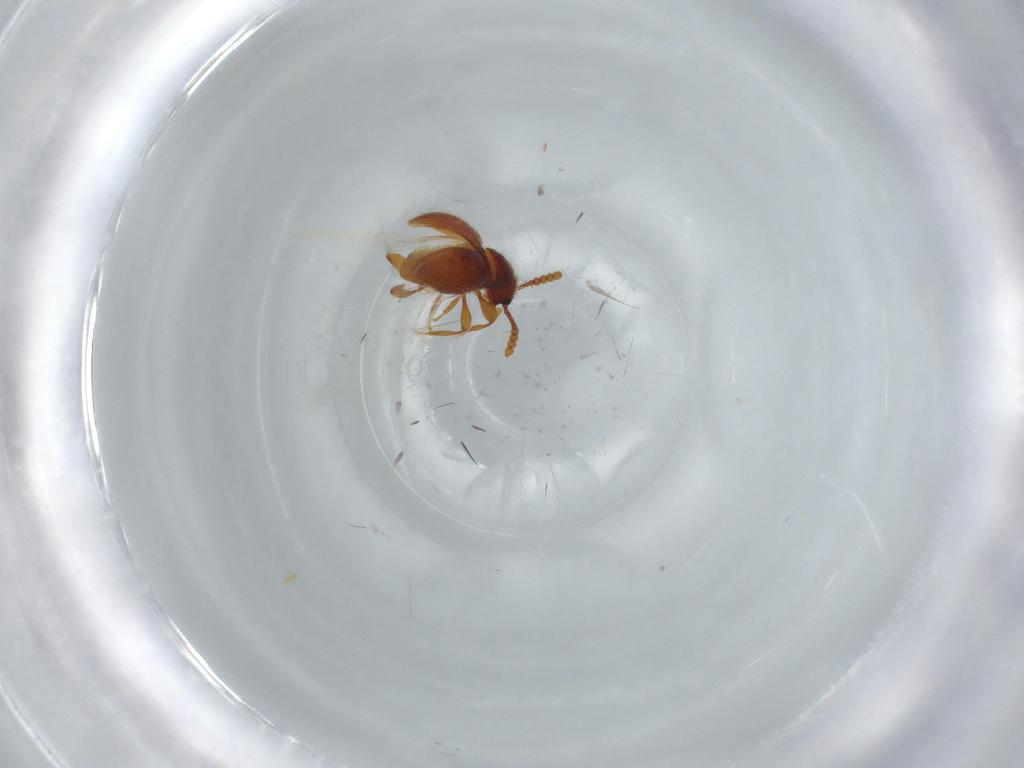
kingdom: Animalia
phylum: Arthropoda
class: Insecta
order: Coleoptera
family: Staphylinidae
